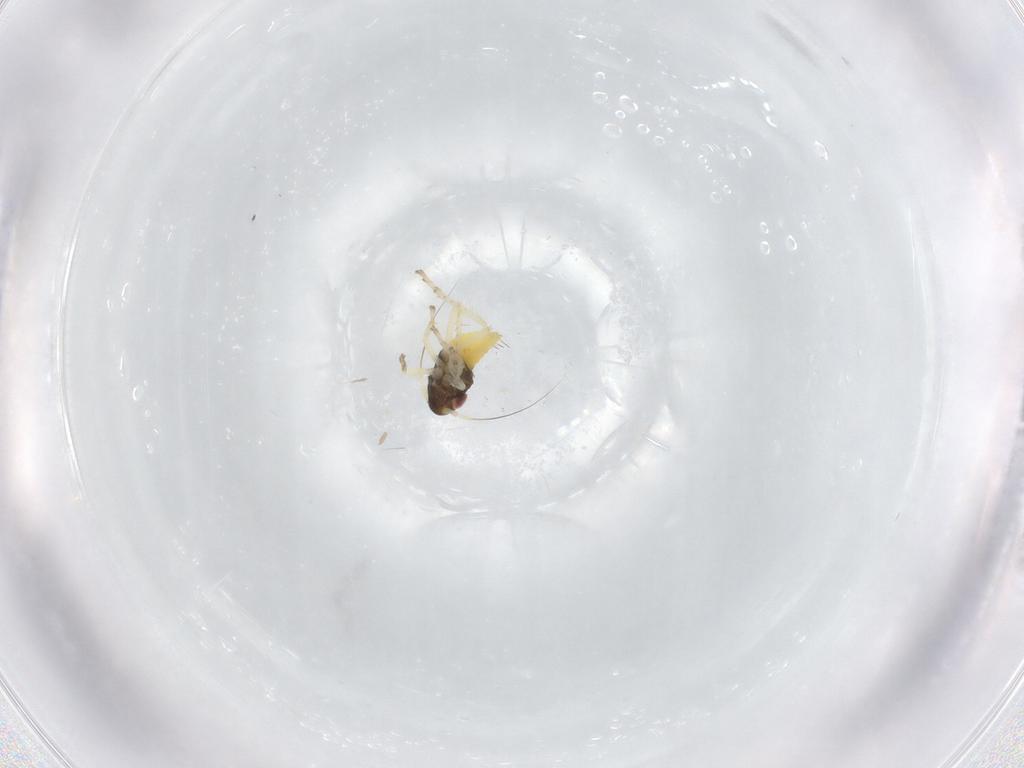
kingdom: Animalia
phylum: Arthropoda
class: Insecta
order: Hemiptera
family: Cicadellidae
